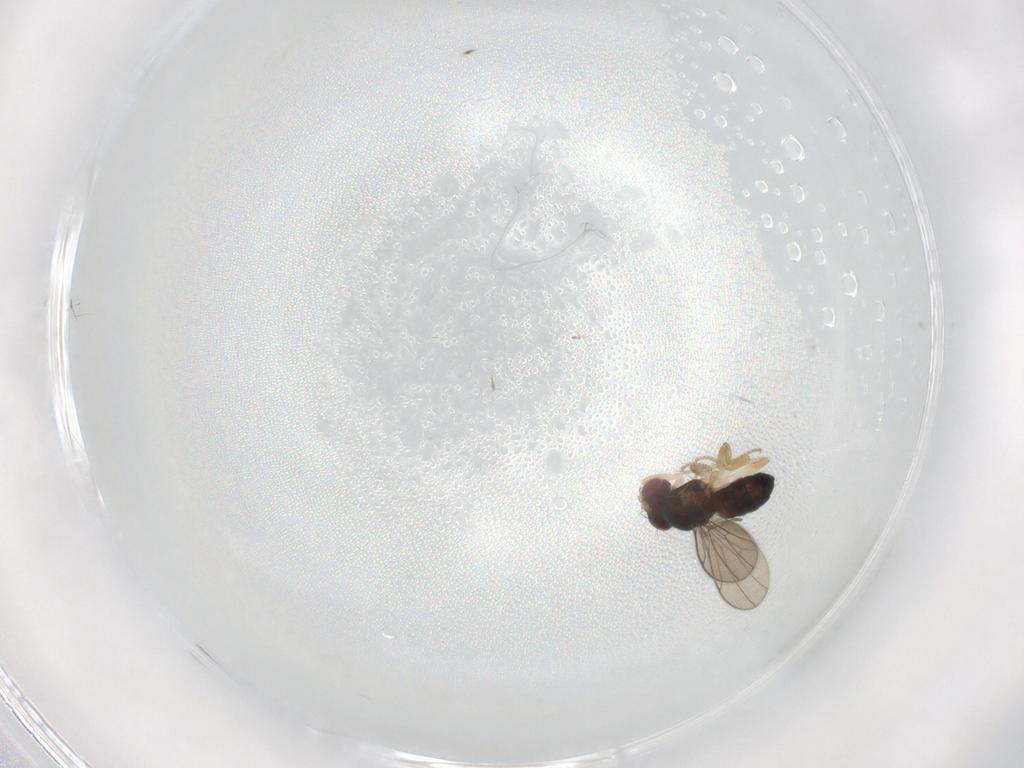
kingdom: Animalia
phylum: Arthropoda
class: Insecta
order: Diptera
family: Drosophilidae
